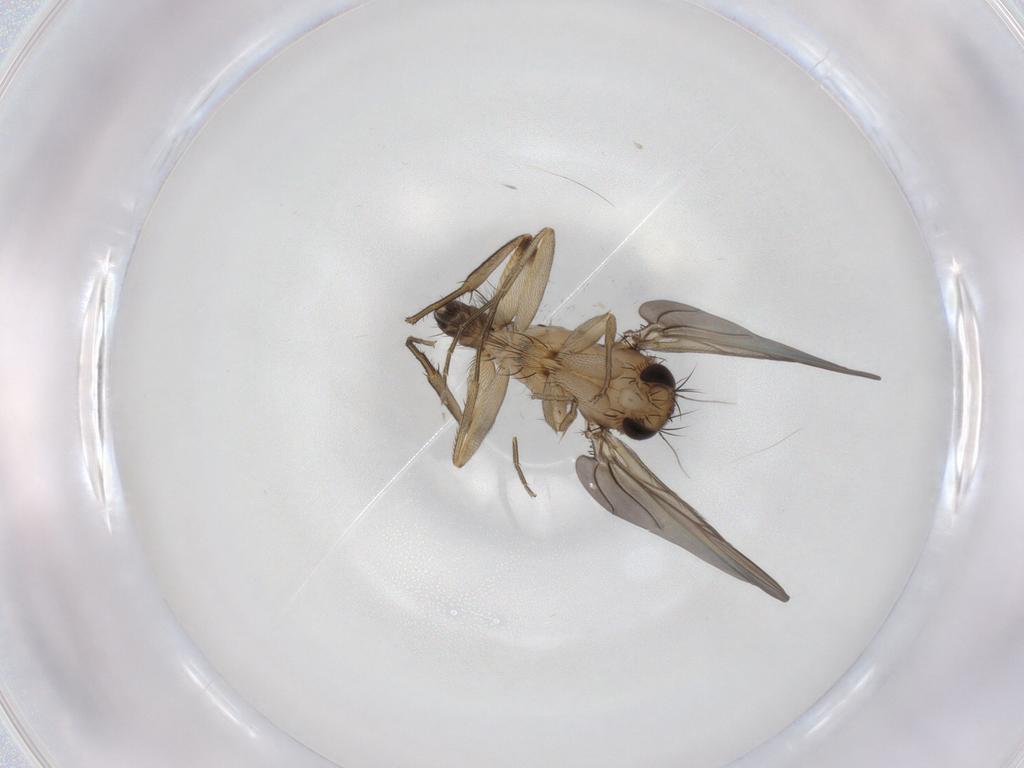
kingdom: Animalia
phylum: Arthropoda
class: Insecta
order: Diptera
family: Phoridae
